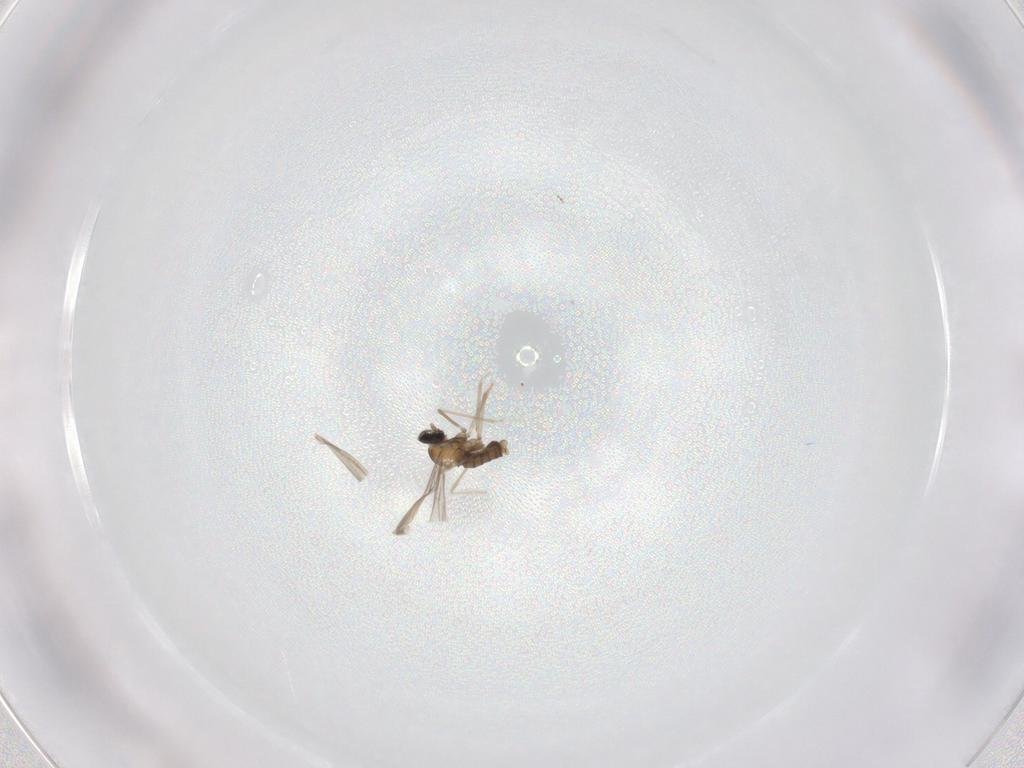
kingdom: Animalia
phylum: Arthropoda
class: Insecta
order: Diptera
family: Cecidomyiidae
